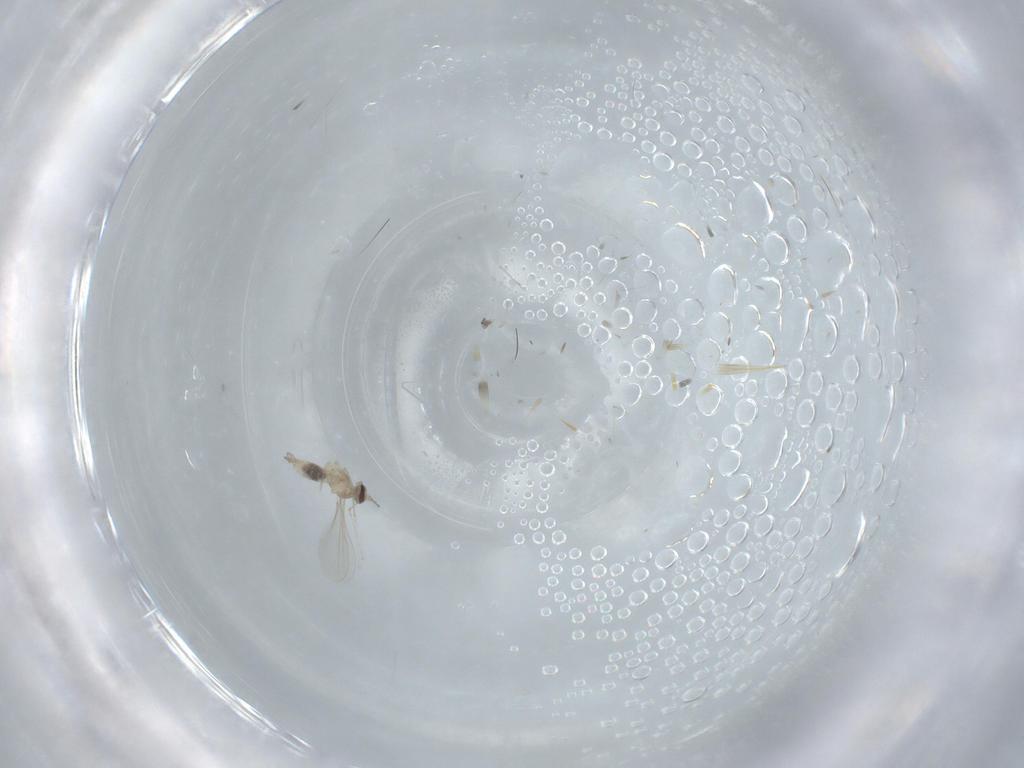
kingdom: Animalia
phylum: Arthropoda
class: Insecta
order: Diptera
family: Cecidomyiidae
